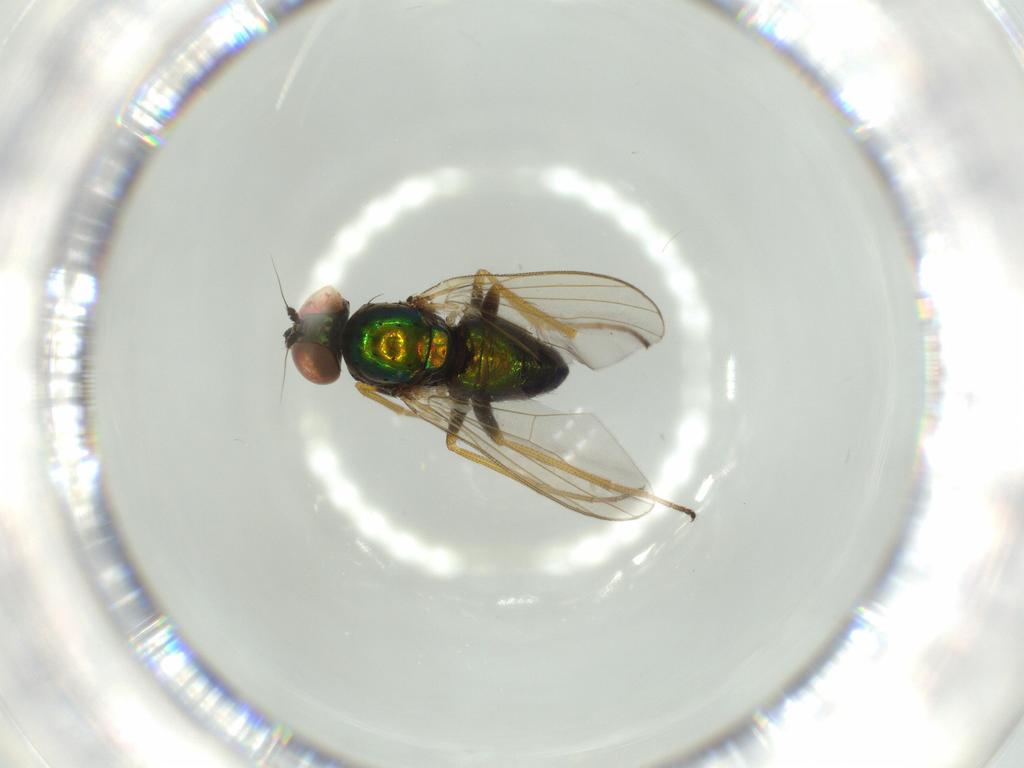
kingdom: Animalia
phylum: Arthropoda
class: Insecta
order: Diptera
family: Dolichopodidae
